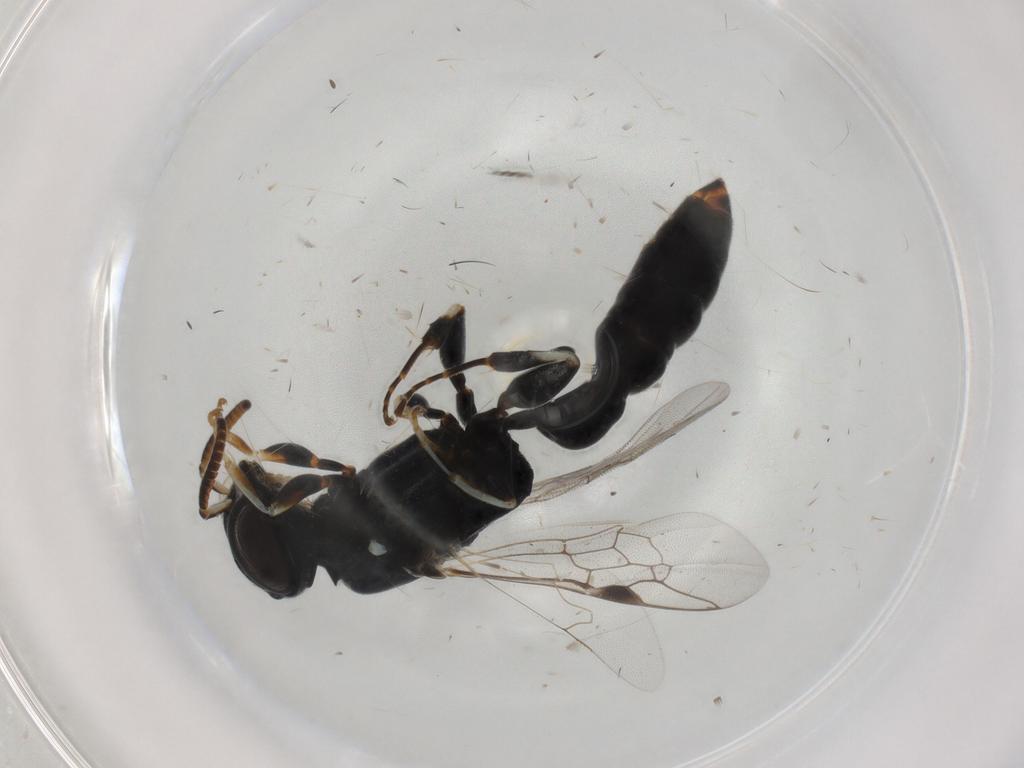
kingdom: Animalia
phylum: Arthropoda
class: Insecta
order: Hymenoptera
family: Pemphredonidae
